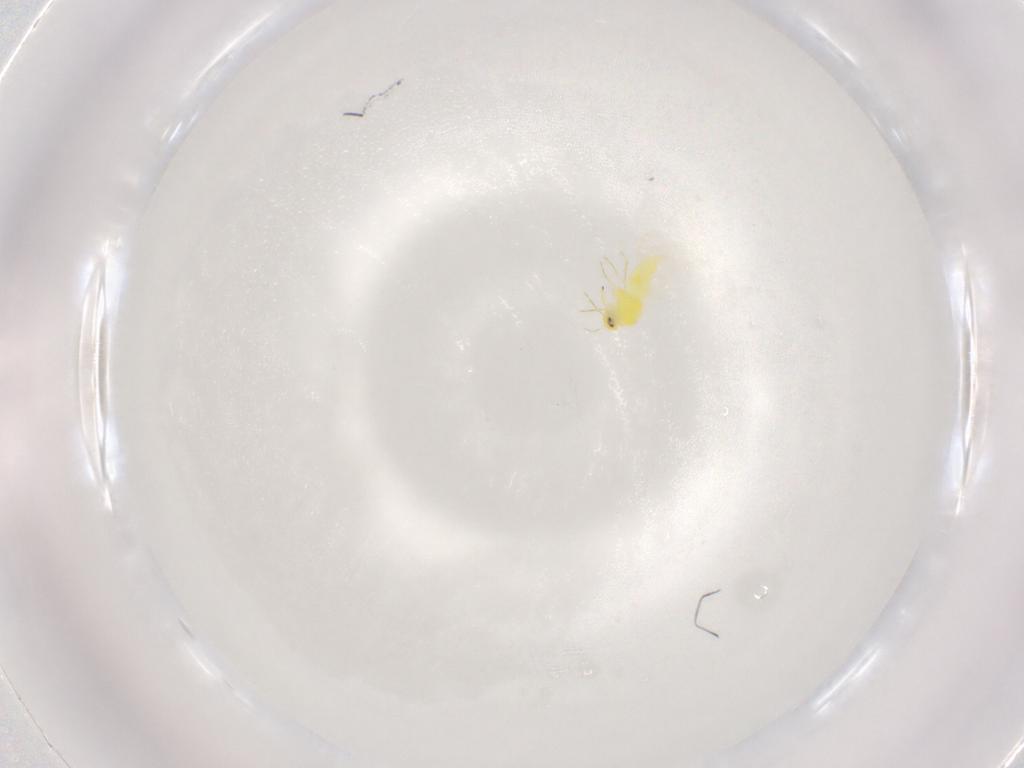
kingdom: Animalia
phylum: Arthropoda
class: Insecta
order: Hemiptera
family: Aleyrodidae
